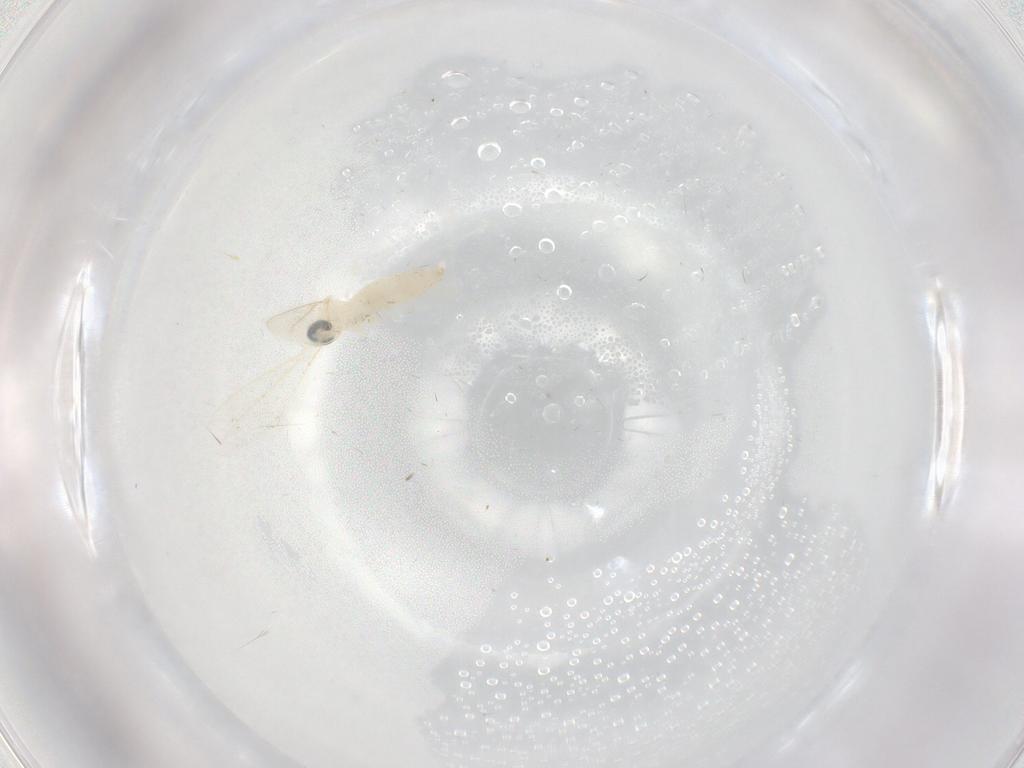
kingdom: Animalia
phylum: Arthropoda
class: Insecta
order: Diptera
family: Cecidomyiidae
